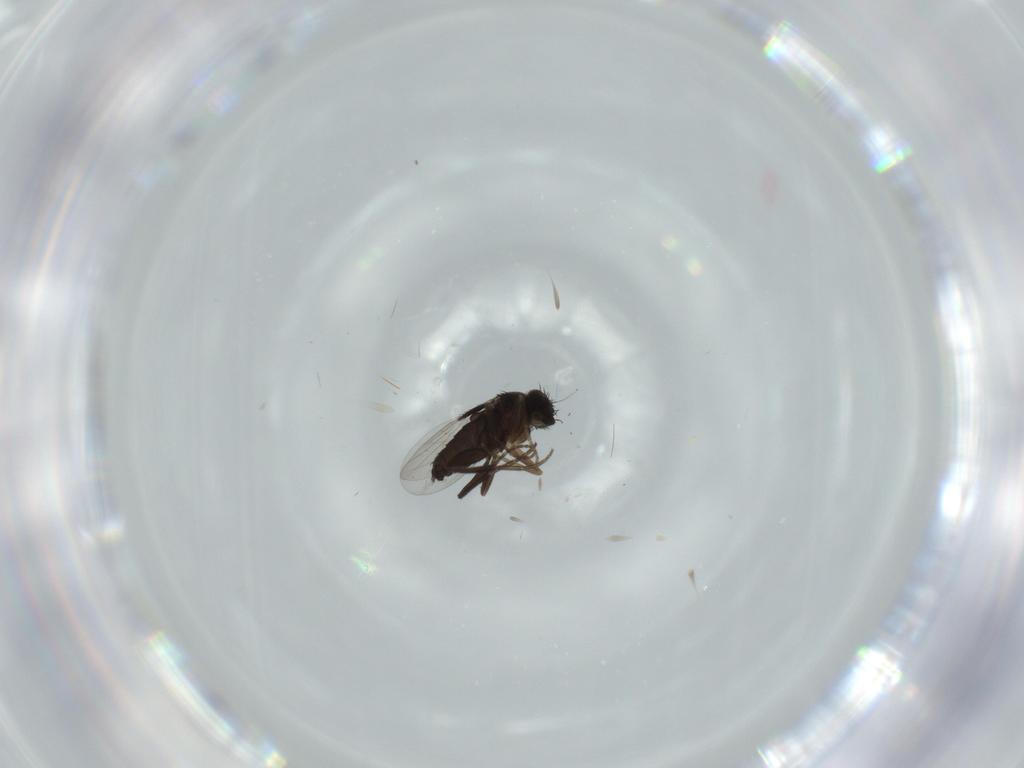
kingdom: Animalia
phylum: Arthropoda
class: Insecta
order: Diptera
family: Phoridae
